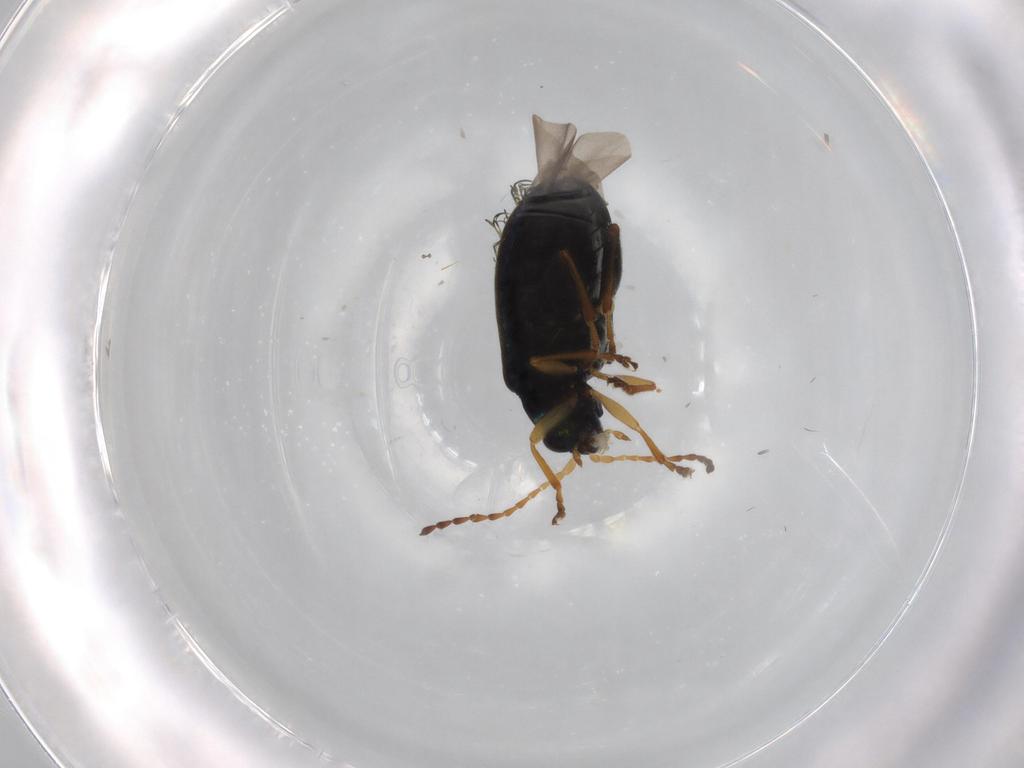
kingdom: Animalia
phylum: Arthropoda
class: Insecta
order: Coleoptera
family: Chrysomelidae
